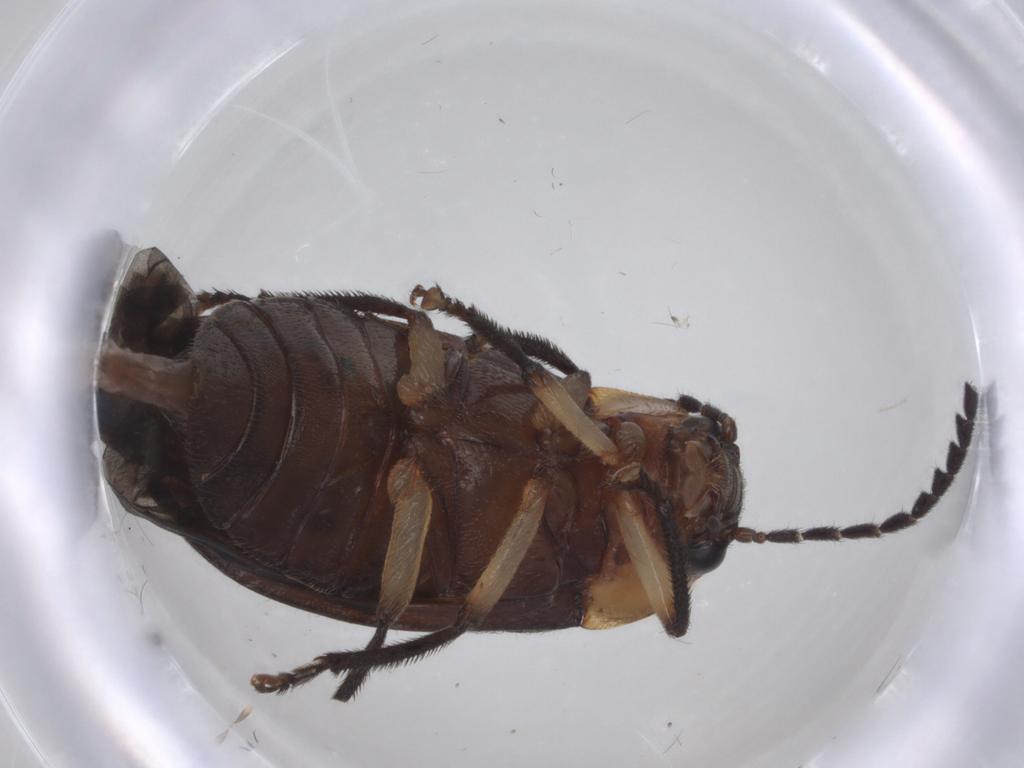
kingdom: Animalia
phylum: Arthropoda
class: Insecta
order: Coleoptera
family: Ptilodactylidae
